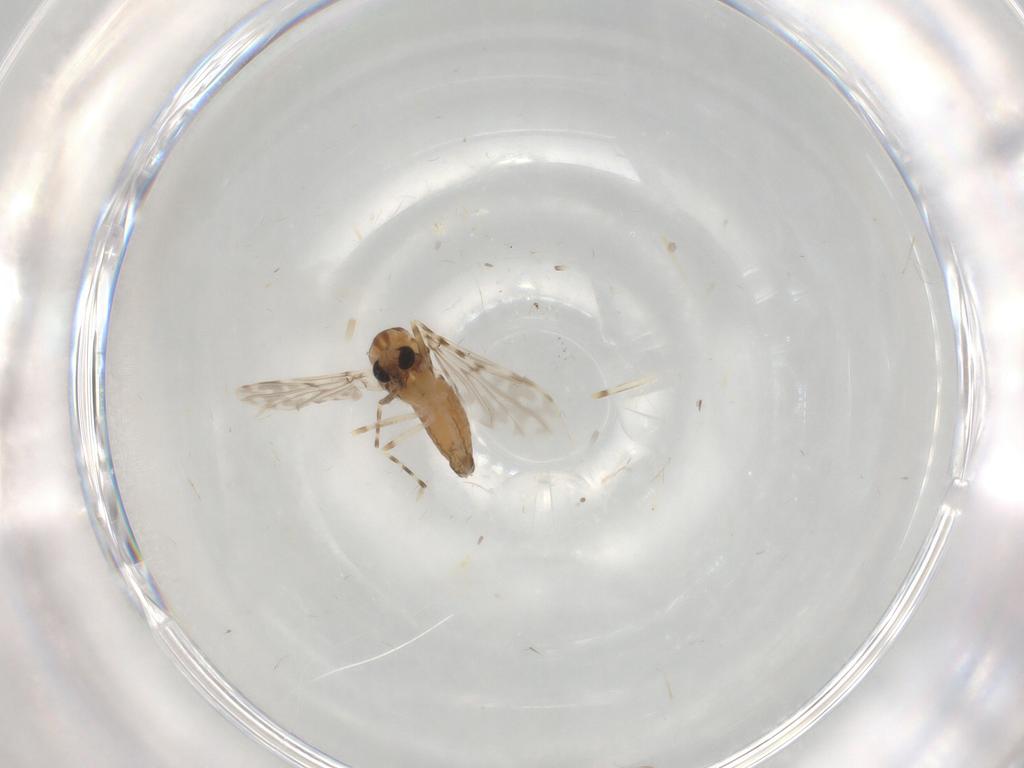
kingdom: Animalia
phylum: Arthropoda
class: Insecta
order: Diptera
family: Chironomidae
